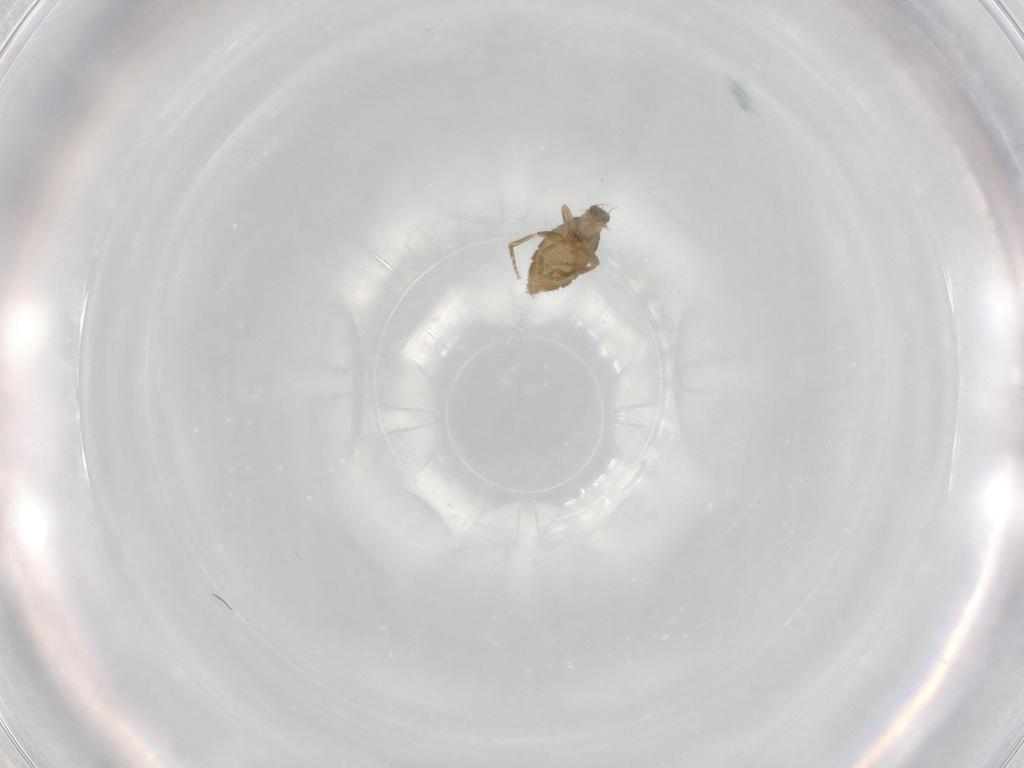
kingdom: Animalia
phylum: Arthropoda
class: Insecta
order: Diptera
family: Phoridae
